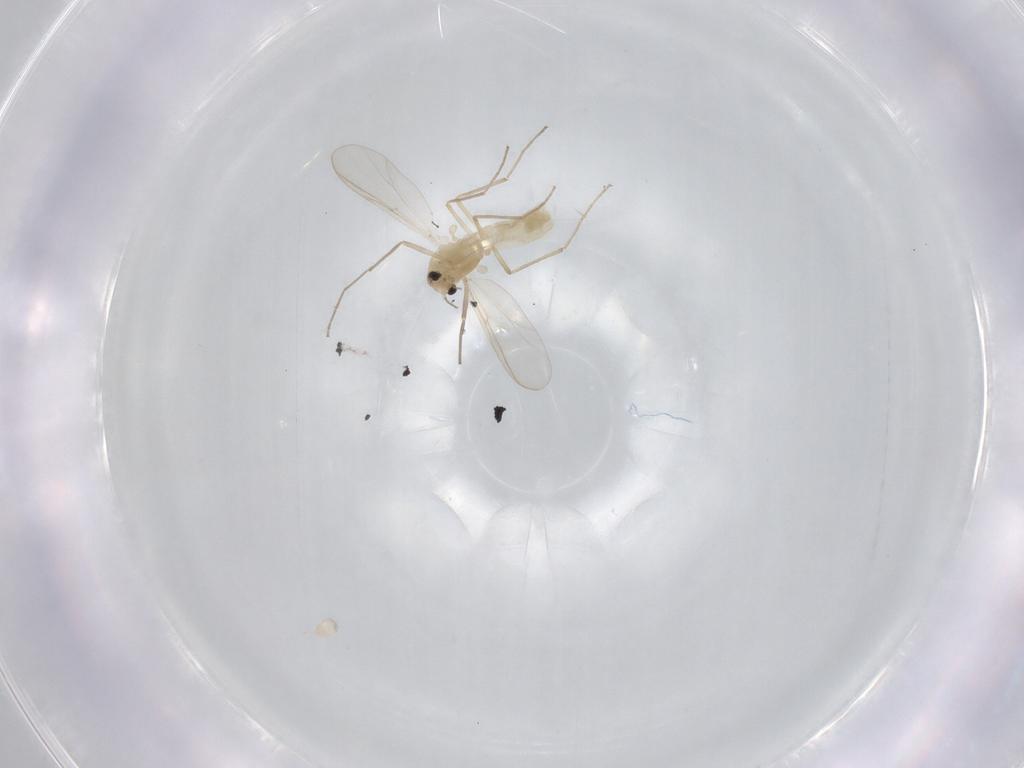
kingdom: Animalia
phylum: Arthropoda
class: Insecta
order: Diptera
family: Chironomidae
